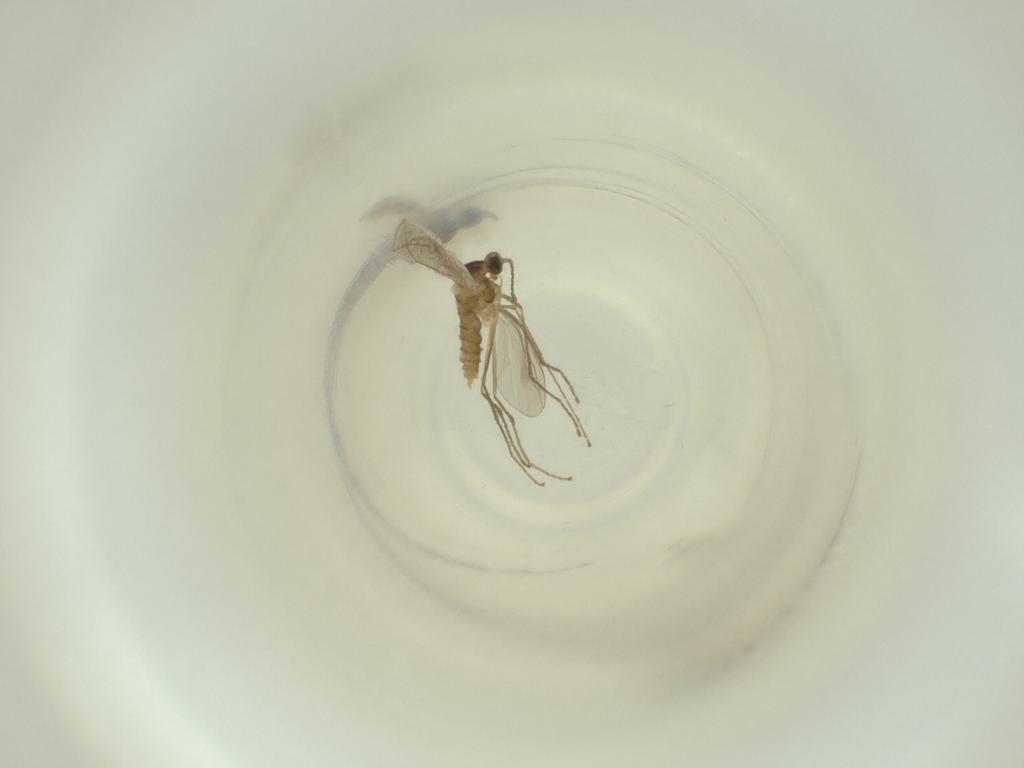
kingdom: Animalia
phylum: Arthropoda
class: Insecta
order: Diptera
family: Cecidomyiidae
